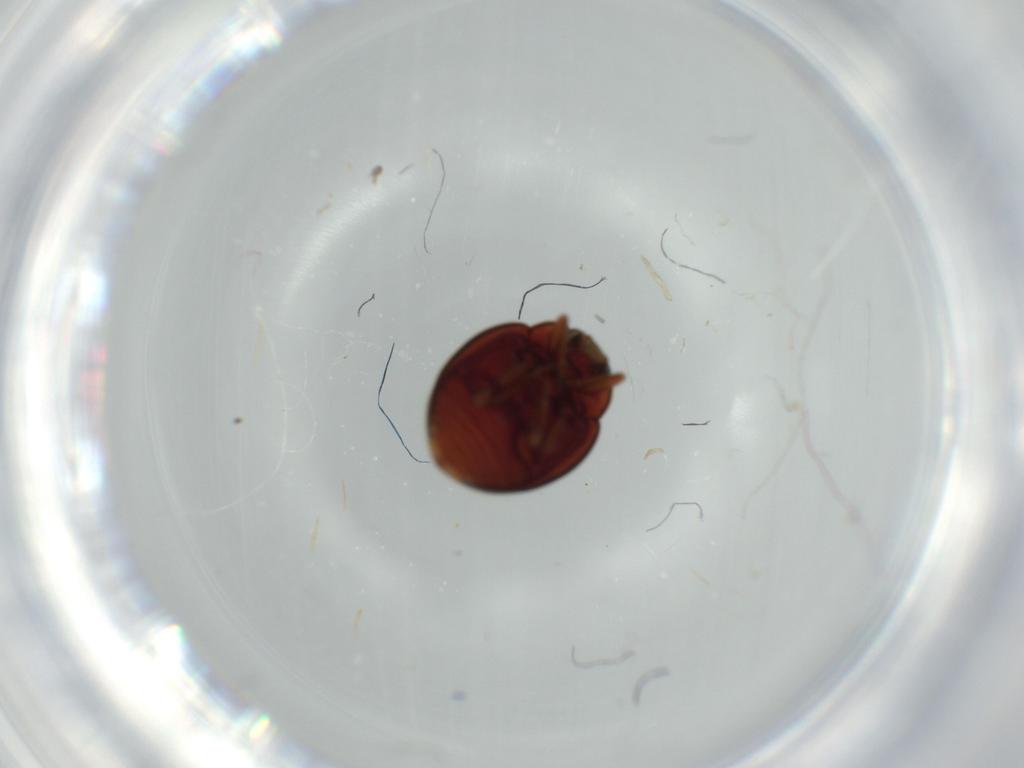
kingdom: Animalia
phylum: Arthropoda
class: Insecta
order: Coleoptera
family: Coccinellidae
